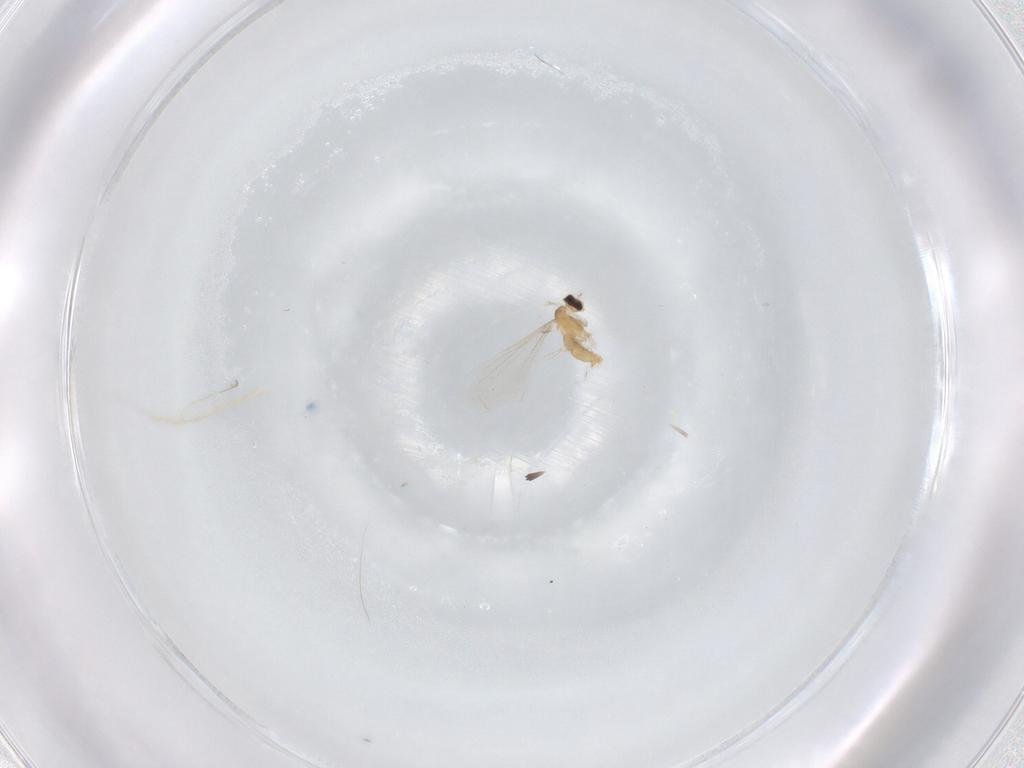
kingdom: Animalia
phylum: Arthropoda
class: Insecta
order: Diptera
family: Cecidomyiidae
